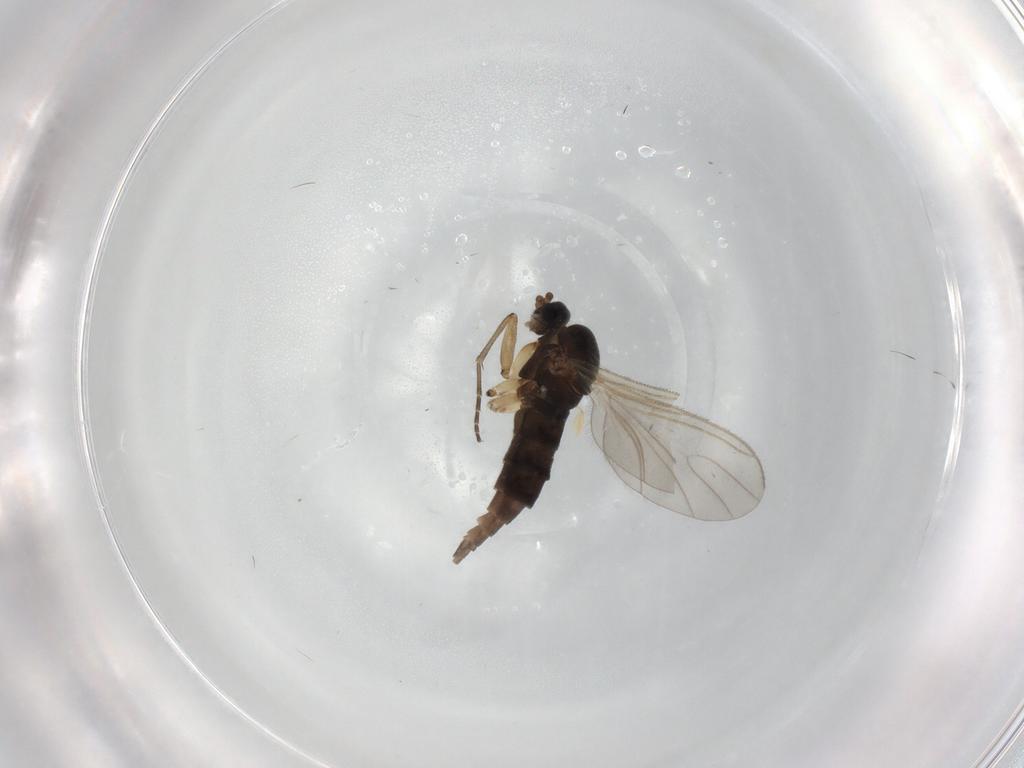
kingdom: Animalia
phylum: Arthropoda
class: Insecta
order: Diptera
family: Sciaridae
